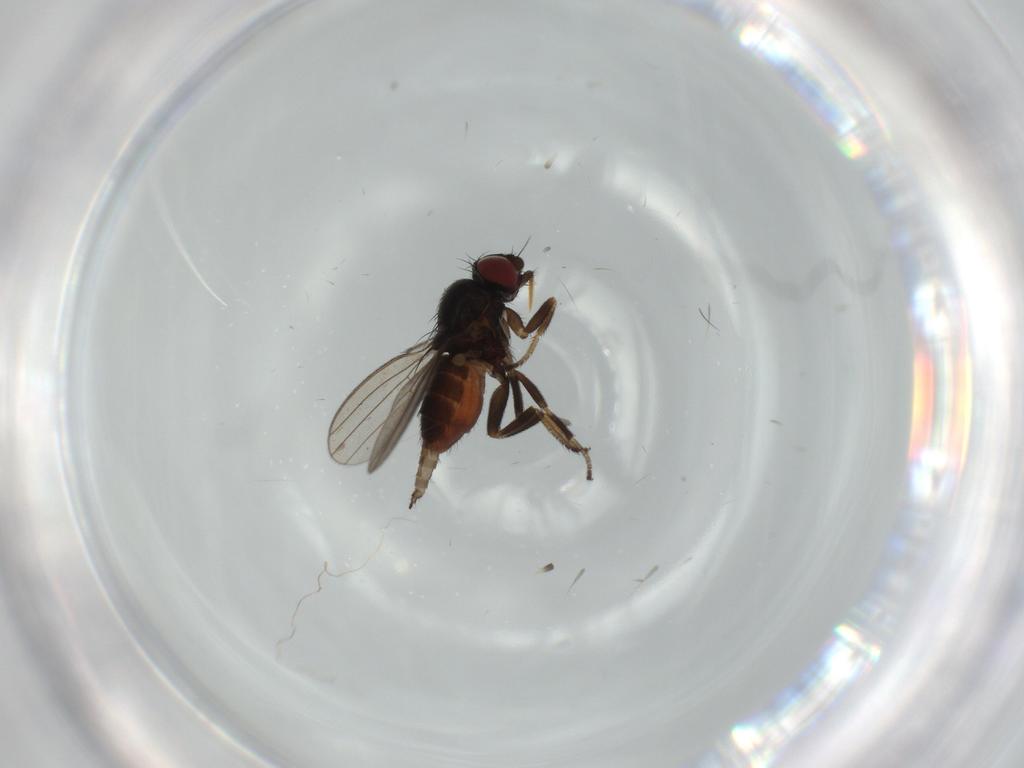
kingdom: Animalia
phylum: Arthropoda
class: Insecta
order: Diptera
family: Milichiidae
